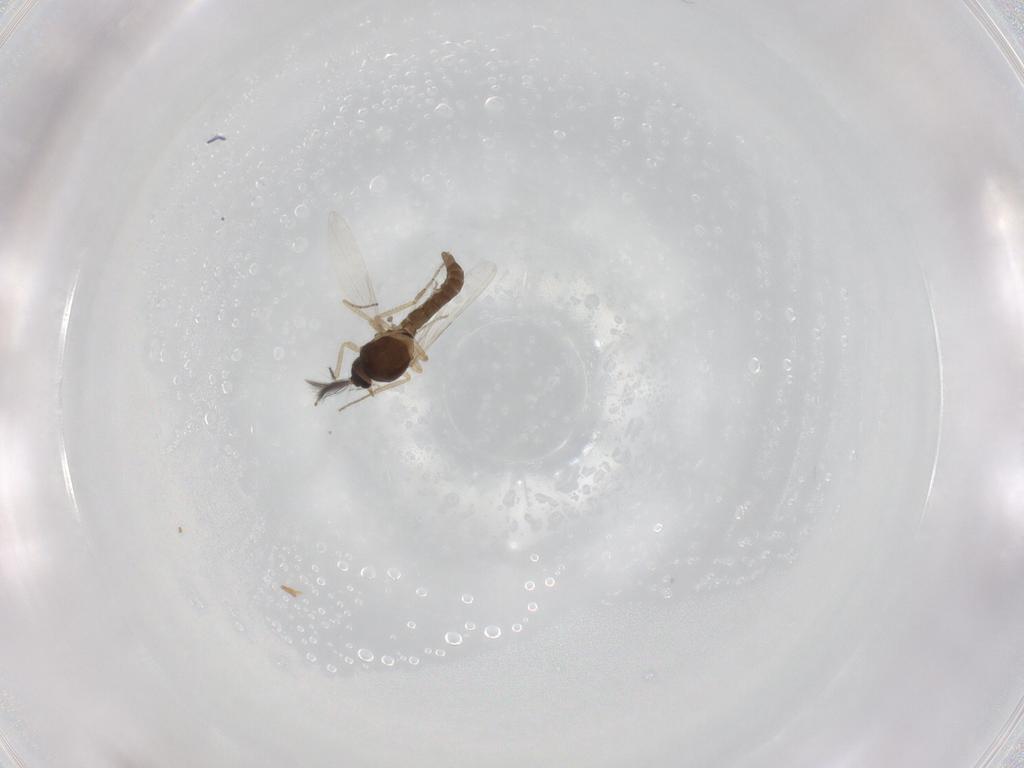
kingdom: Animalia
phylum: Arthropoda
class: Insecta
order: Diptera
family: Ceratopogonidae
